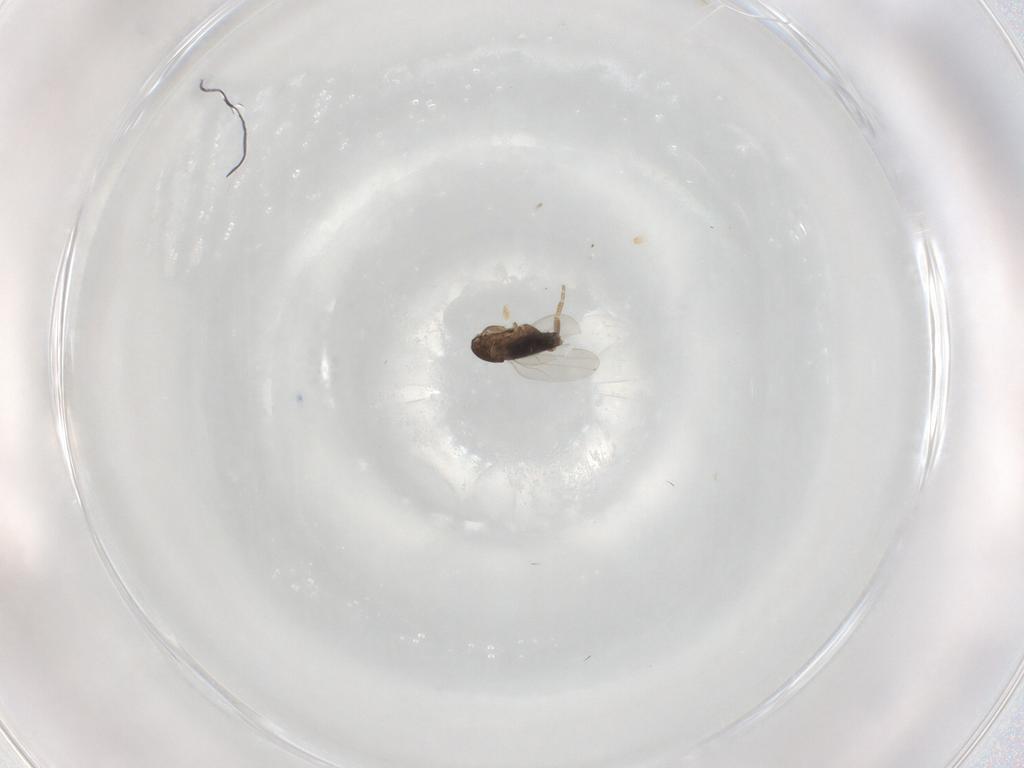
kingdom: Animalia
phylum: Arthropoda
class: Insecta
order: Diptera
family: Phoridae
